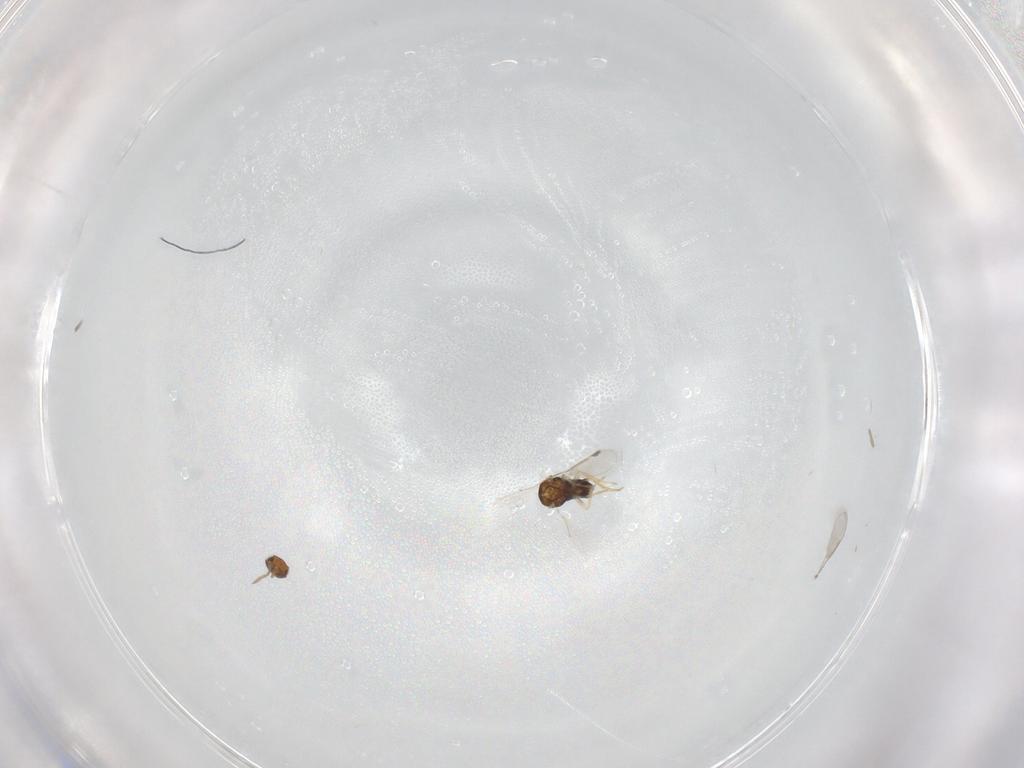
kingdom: Animalia
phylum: Arthropoda
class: Insecta
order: Hymenoptera
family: Aphelinidae
